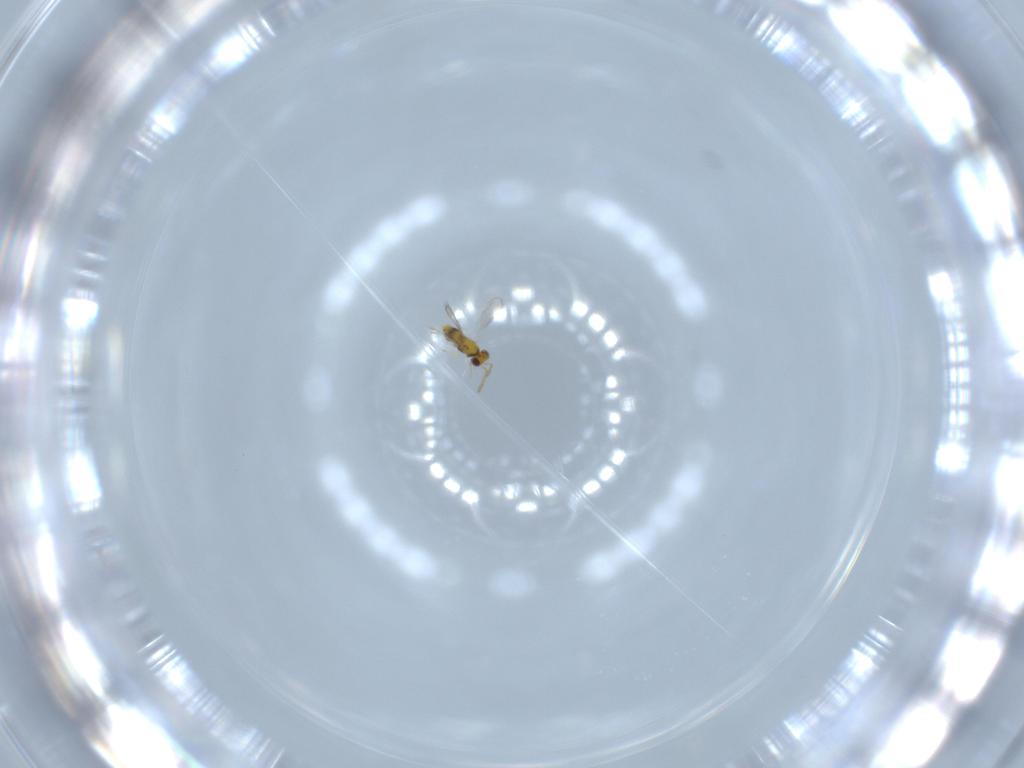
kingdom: Animalia
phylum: Arthropoda
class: Insecta
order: Hymenoptera
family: Aphelinidae
